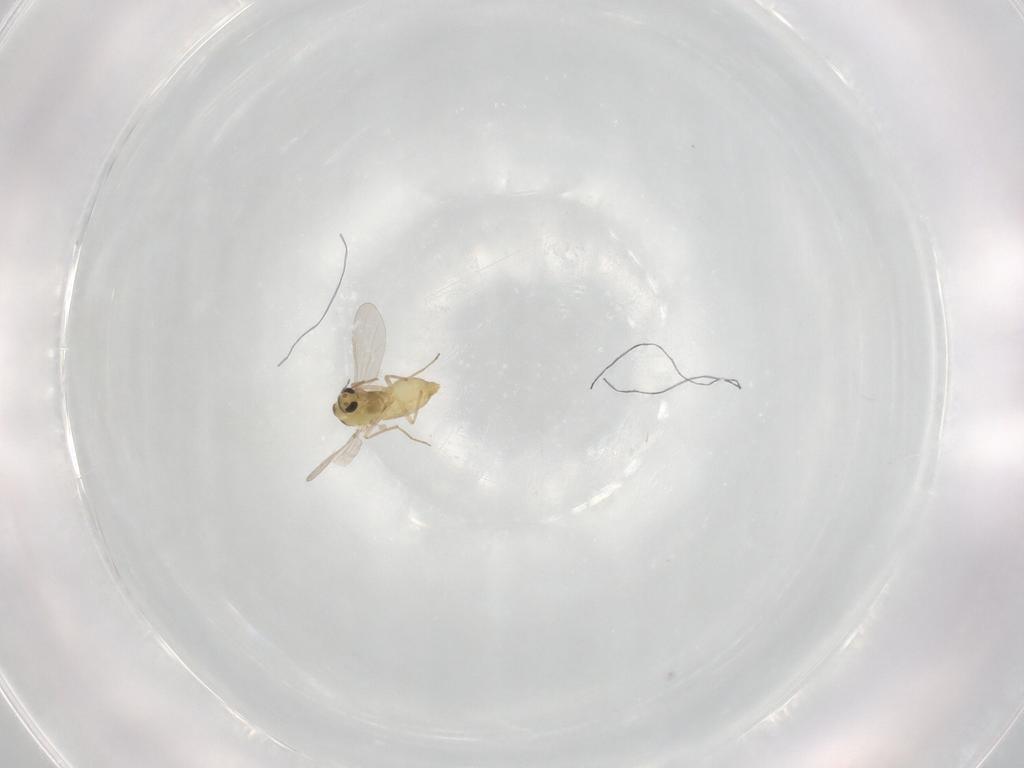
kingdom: Animalia
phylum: Arthropoda
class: Insecta
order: Diptera
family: Chironomidae
